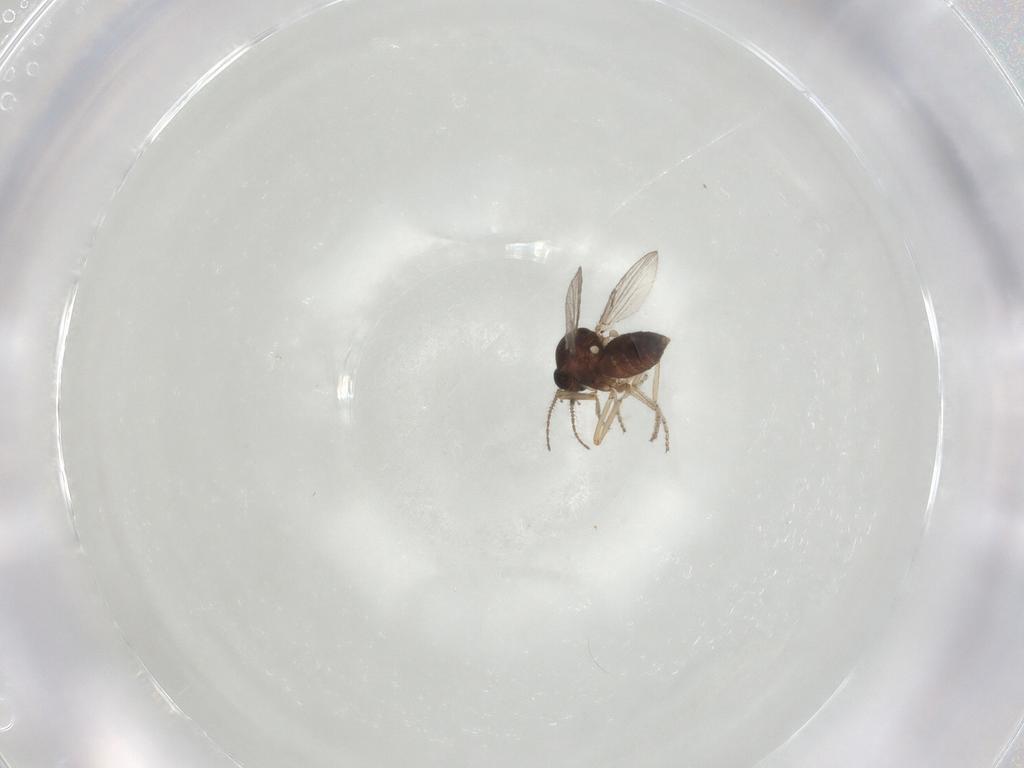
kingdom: Animalia
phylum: Arthropoda
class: Insecta
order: Diptera
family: Chironomidae
